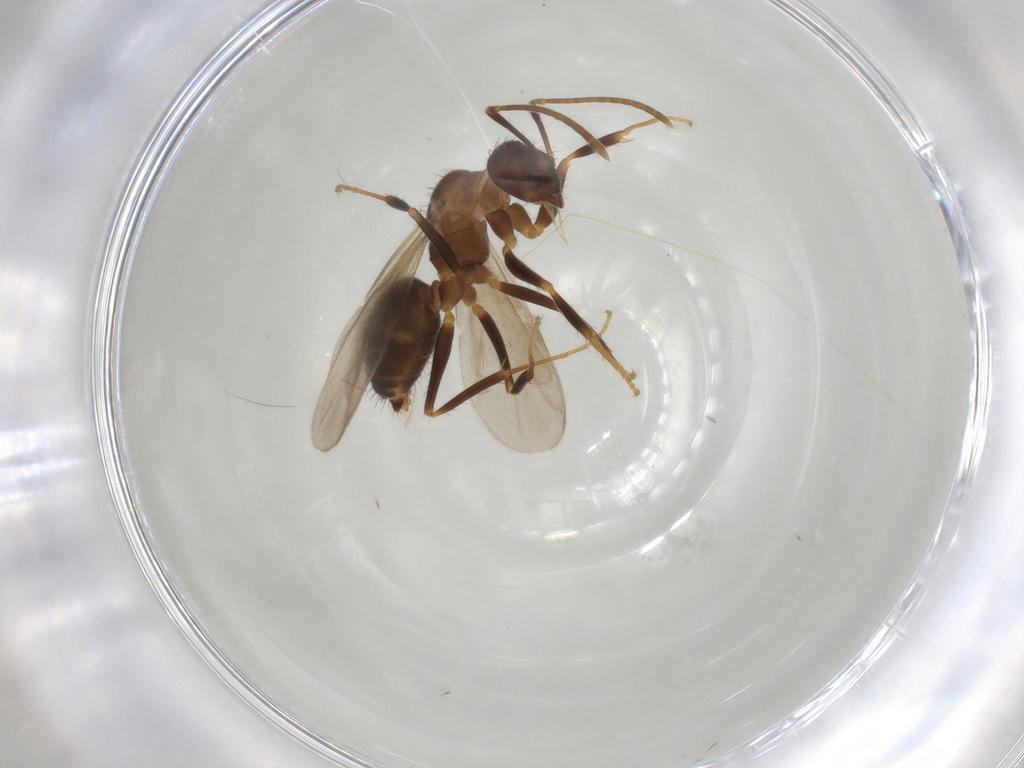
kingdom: Animalia
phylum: Arthropoda
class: Insecta
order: Hymenoptera
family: Formicidae
